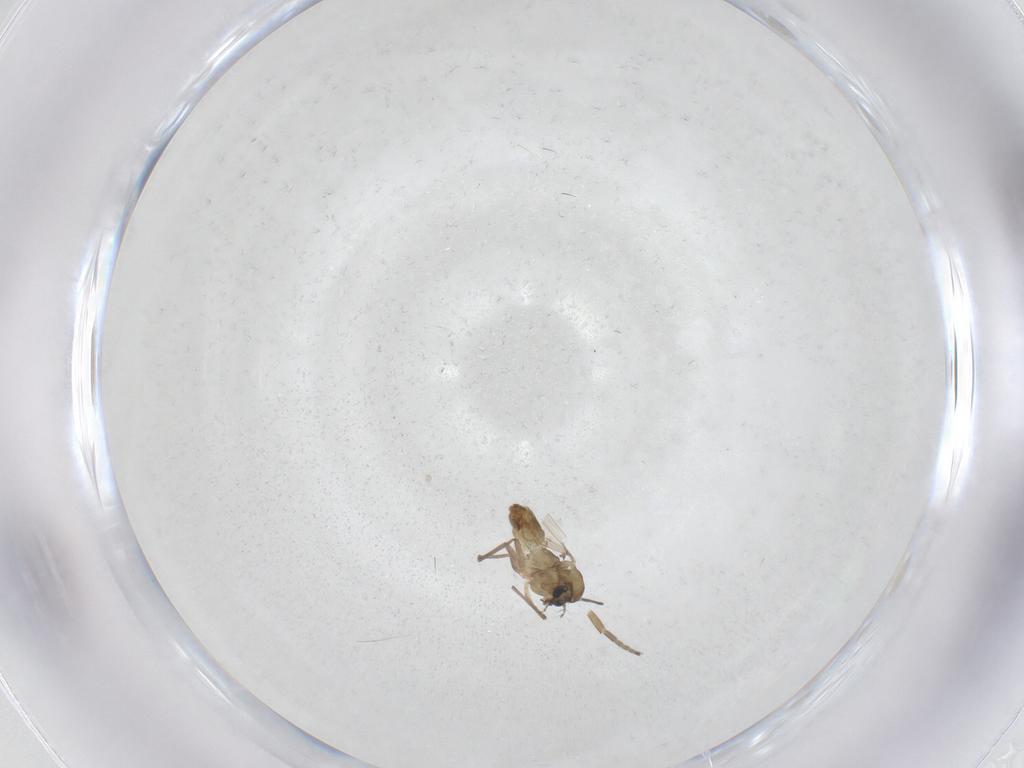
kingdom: Animalia
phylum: Arthropoda
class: Insecta
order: Diptera
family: Chironomidae
